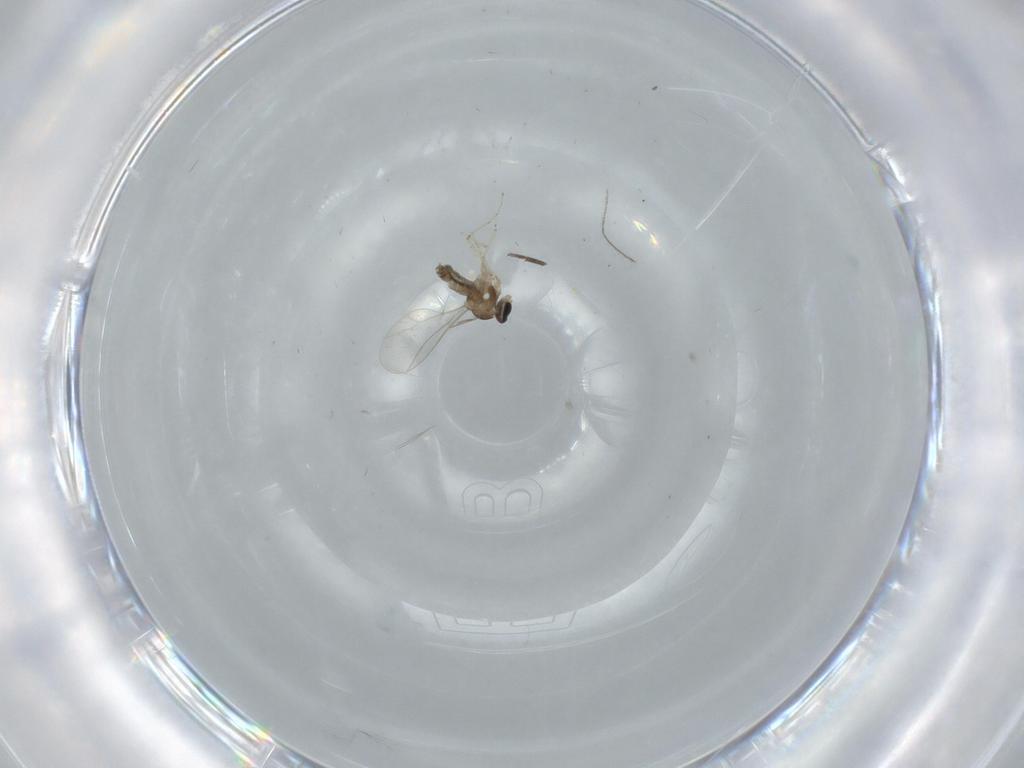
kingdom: Animalia
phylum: Arthropoda
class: Insecta
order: Diptera
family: Cecidomyiidae
